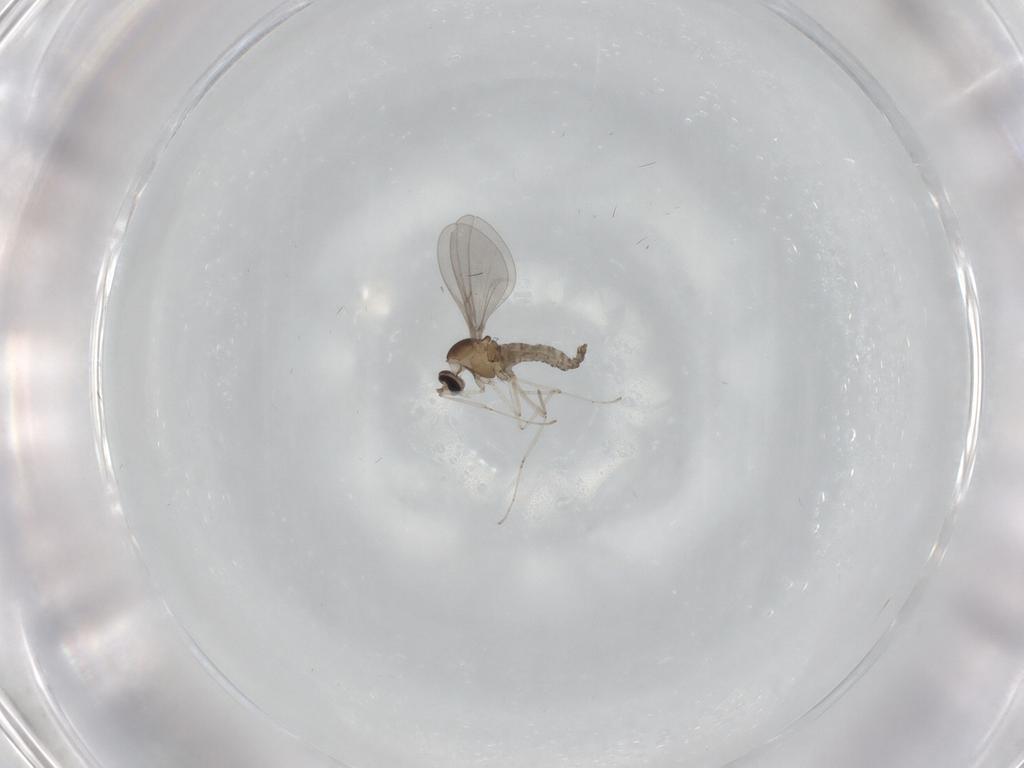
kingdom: Animalia
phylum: Arthropoda
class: Insecta
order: Diptera
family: Cecidomyiidae
